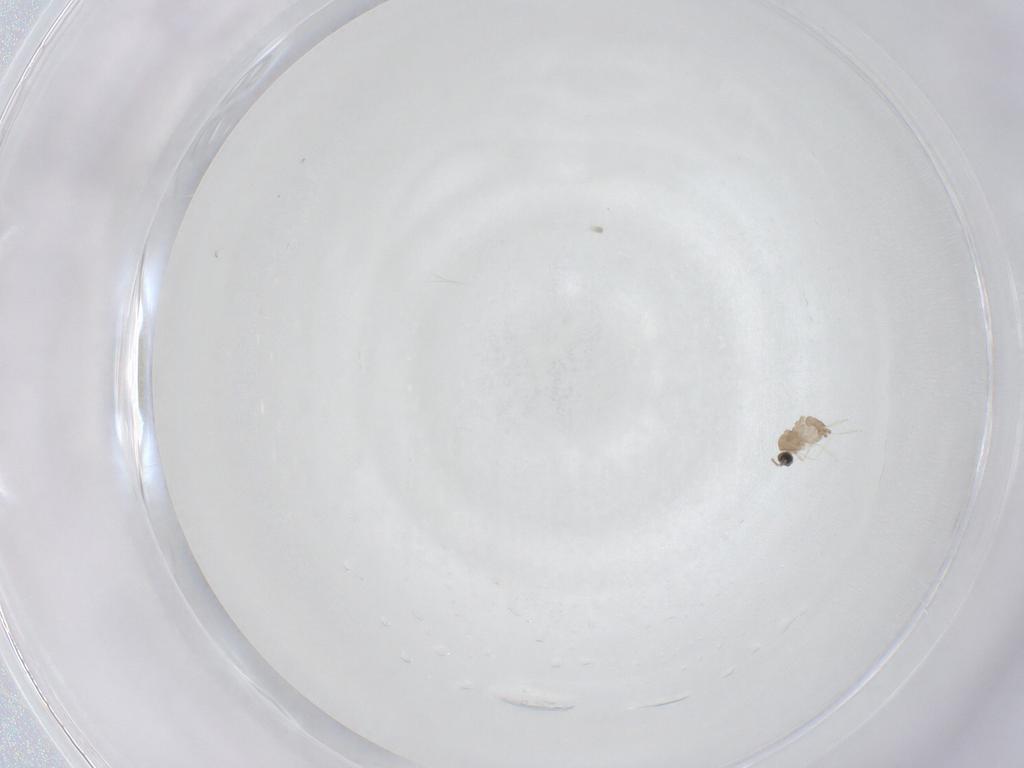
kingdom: Animalia
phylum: Arthropoda
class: Insecta
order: Diptera
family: Cecidomyiidae
